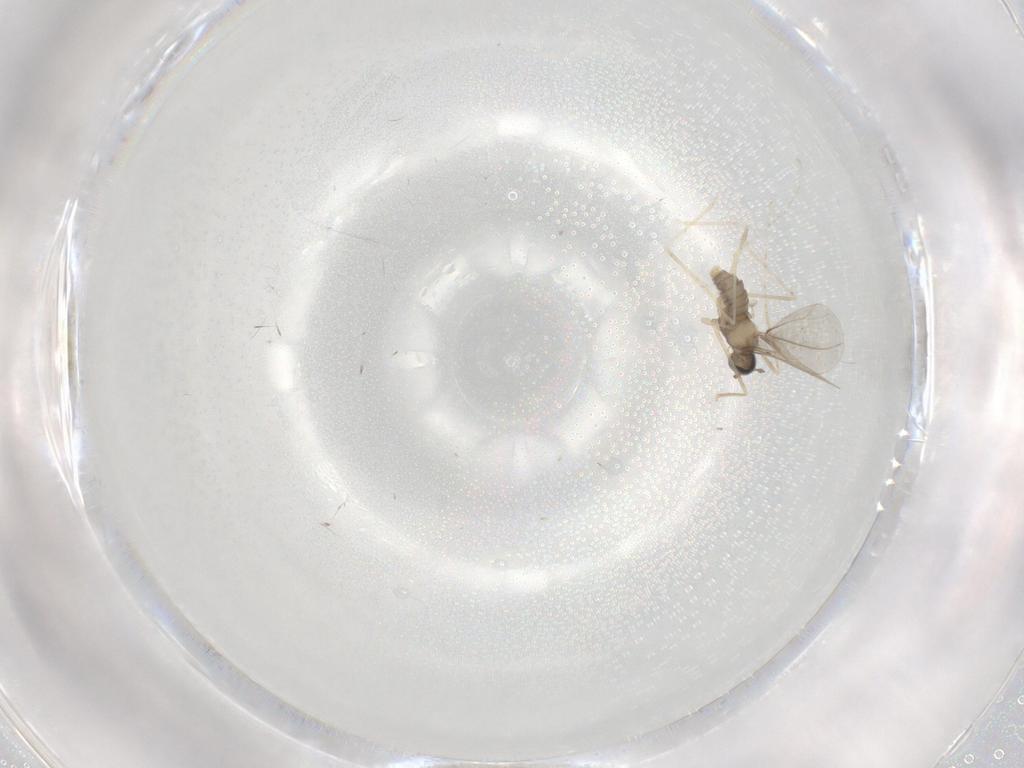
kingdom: Animalia
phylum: Arthropoda
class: Insecta
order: Diptera
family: Cecidomyiidae
